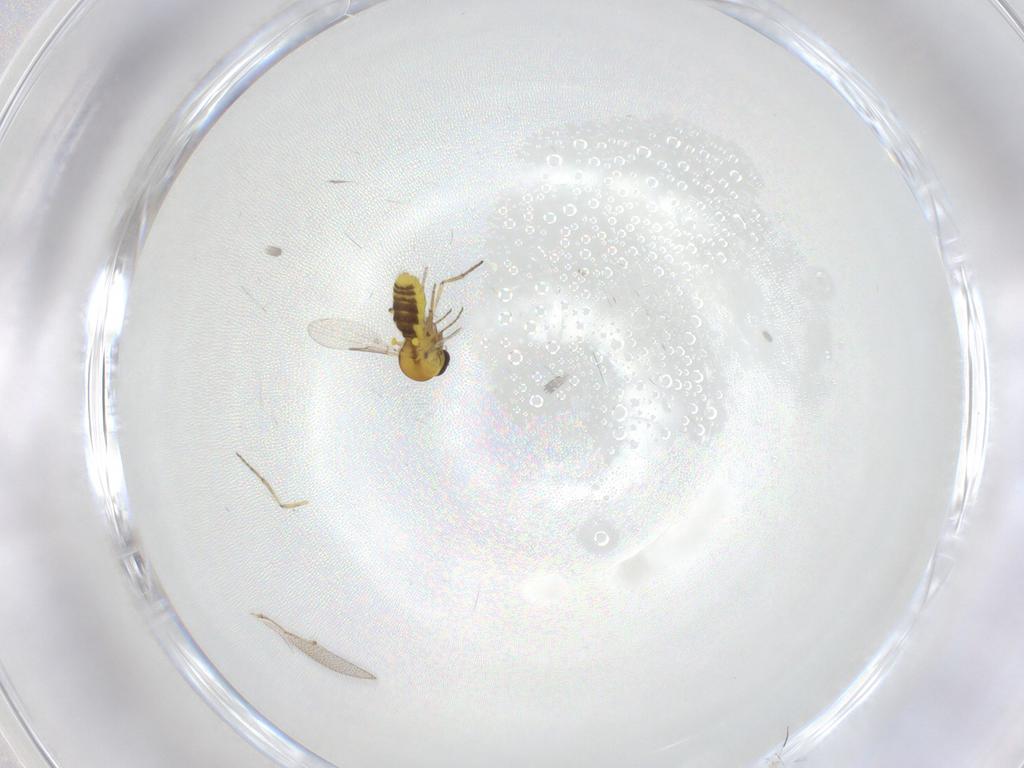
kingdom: Animalia
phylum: Arthropoda
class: Insecta
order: Diptera
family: Ceratopogonidae
